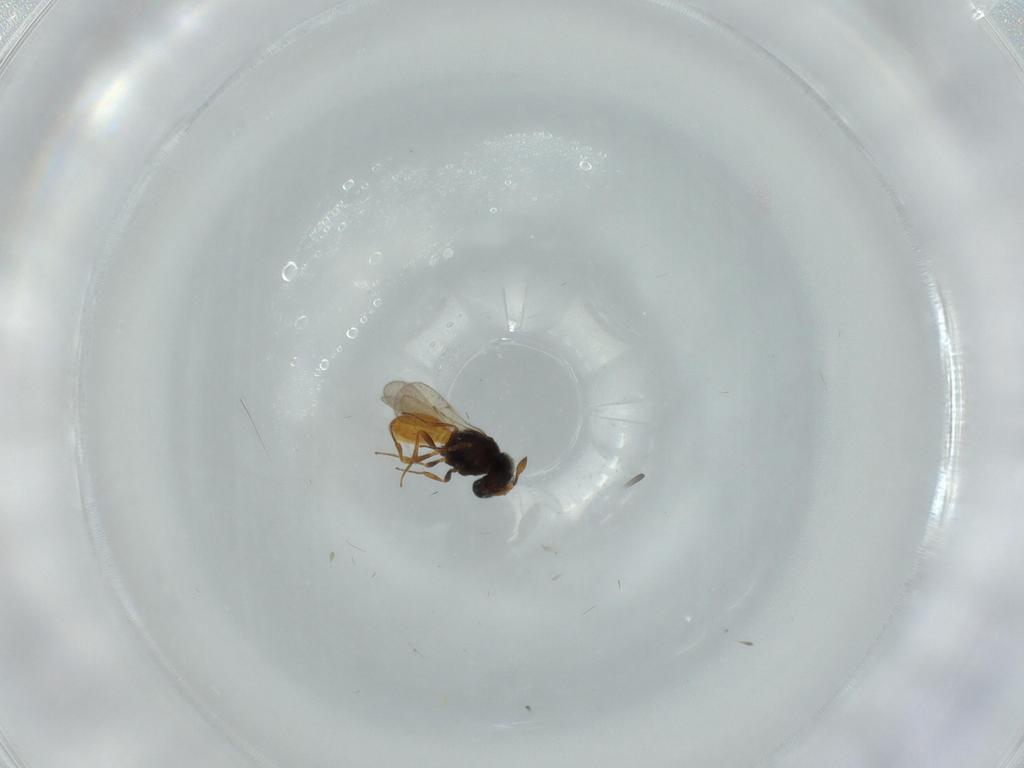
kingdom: Animalia
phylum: Arthropoda
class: Insecta
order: Hymenoptera
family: Scelionidae
